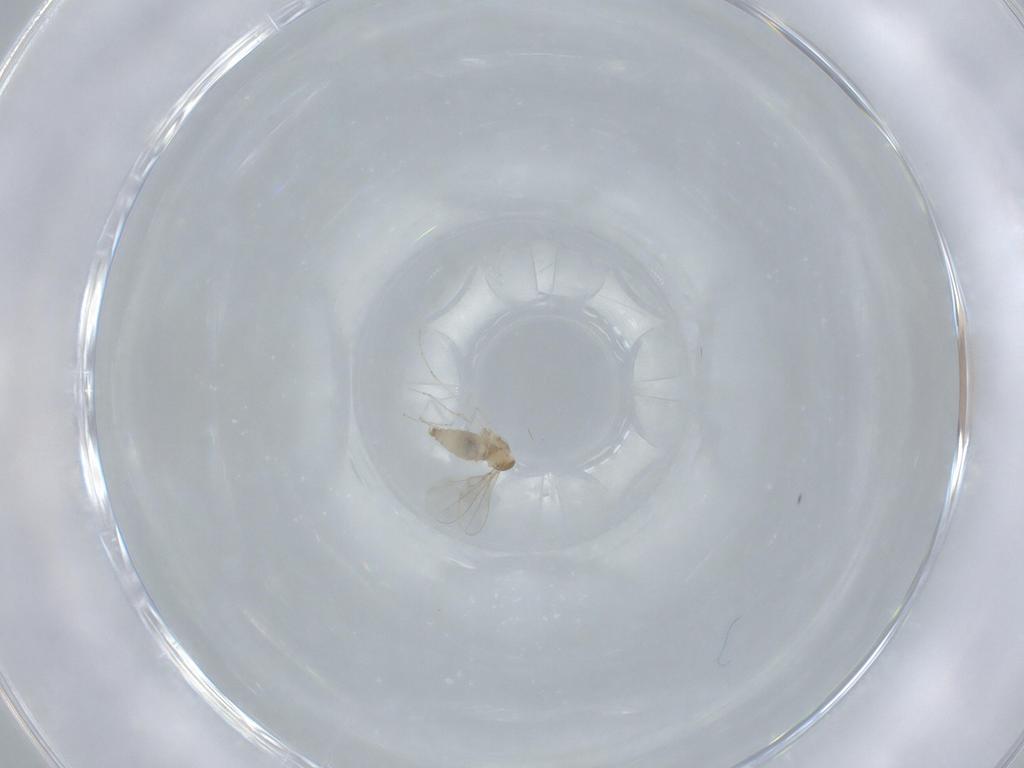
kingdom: Animalia
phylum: Arthropoda
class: Insecta
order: Diptera
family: Cecidomyiidae
